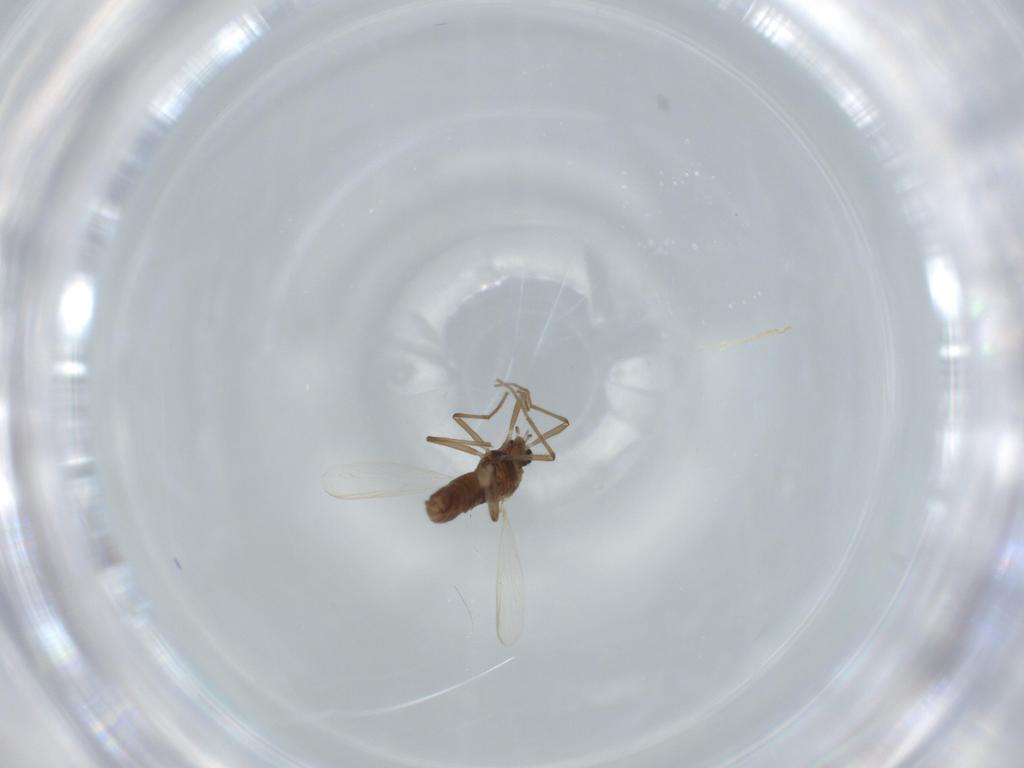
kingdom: Animalia
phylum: Arthropoda
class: Insecta
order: Diptera
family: Chironomidae
